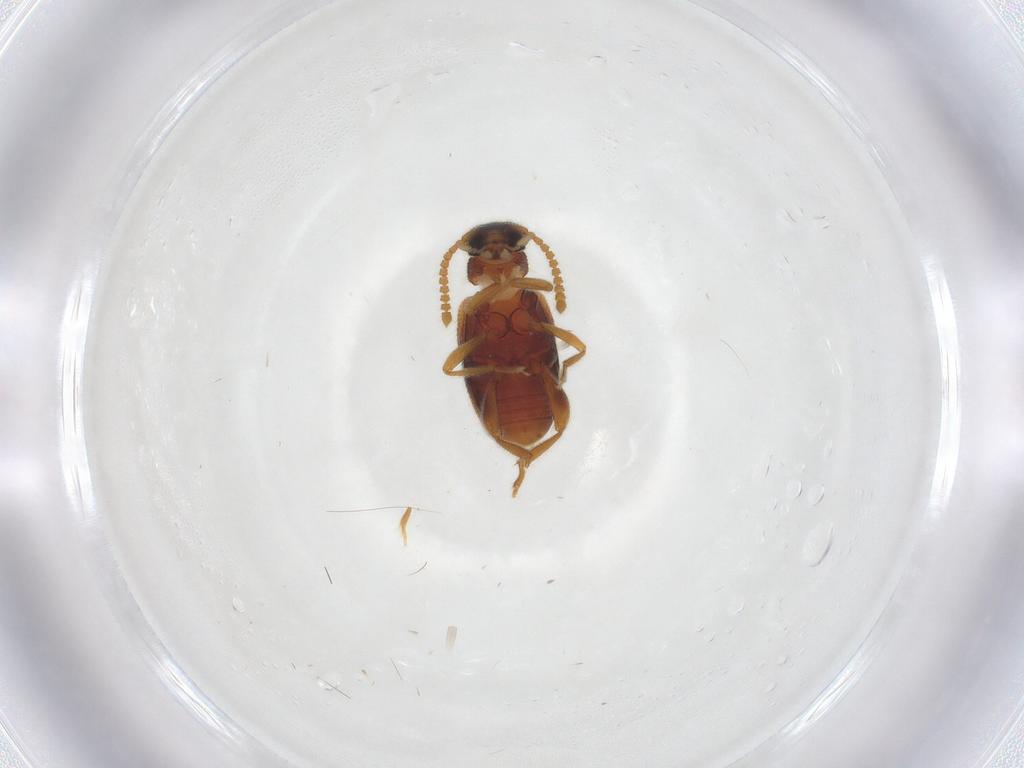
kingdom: Animalia
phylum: Arthropoda
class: Insecta
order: Coleoptera
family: Aderidae
